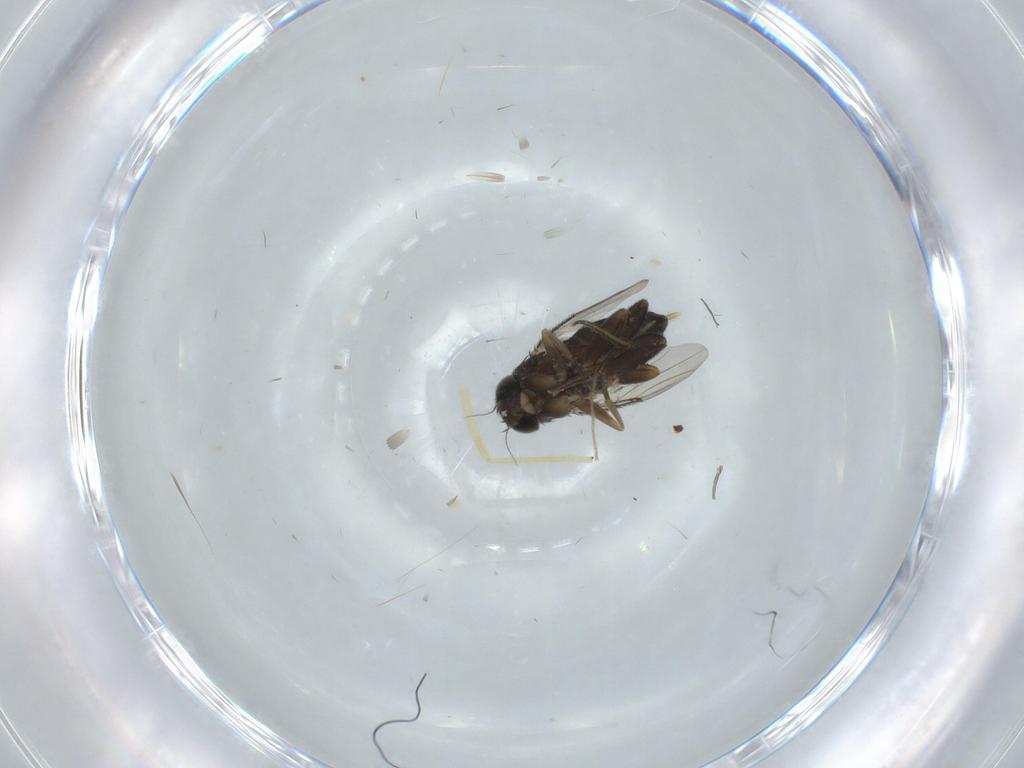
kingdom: Animalia
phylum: Arthropoda
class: Insecta
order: Diptera
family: Phoridae
